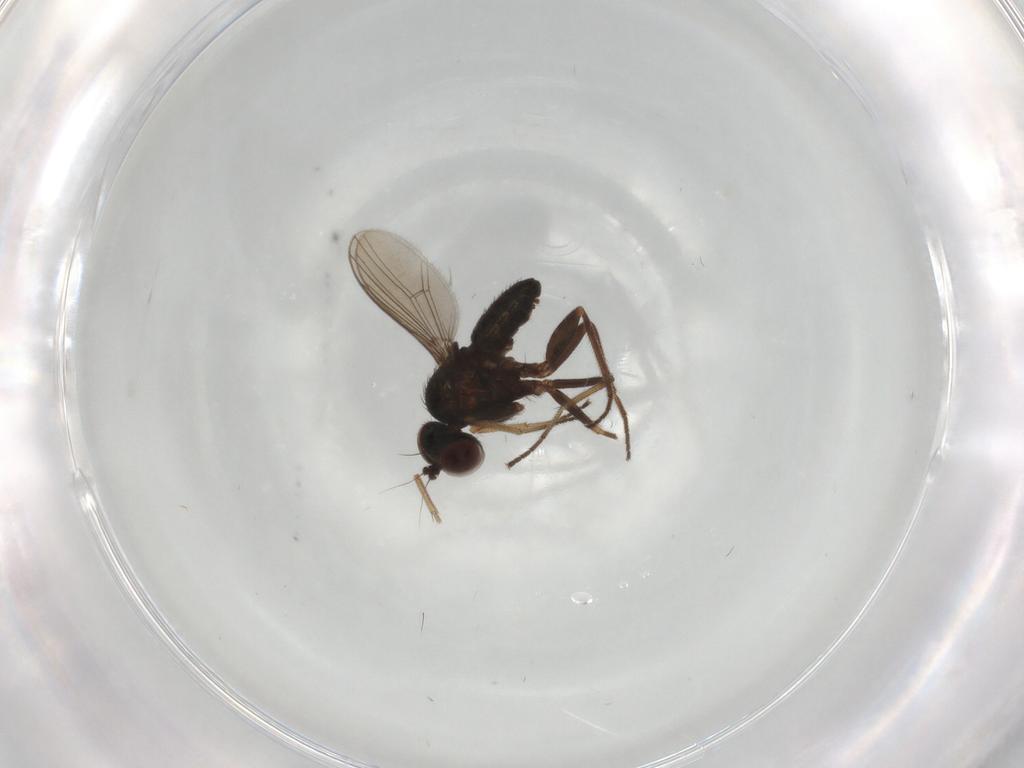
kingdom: Animalia
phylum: Arthropoda
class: Insecta
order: Diptera
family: Dolichopodidae
